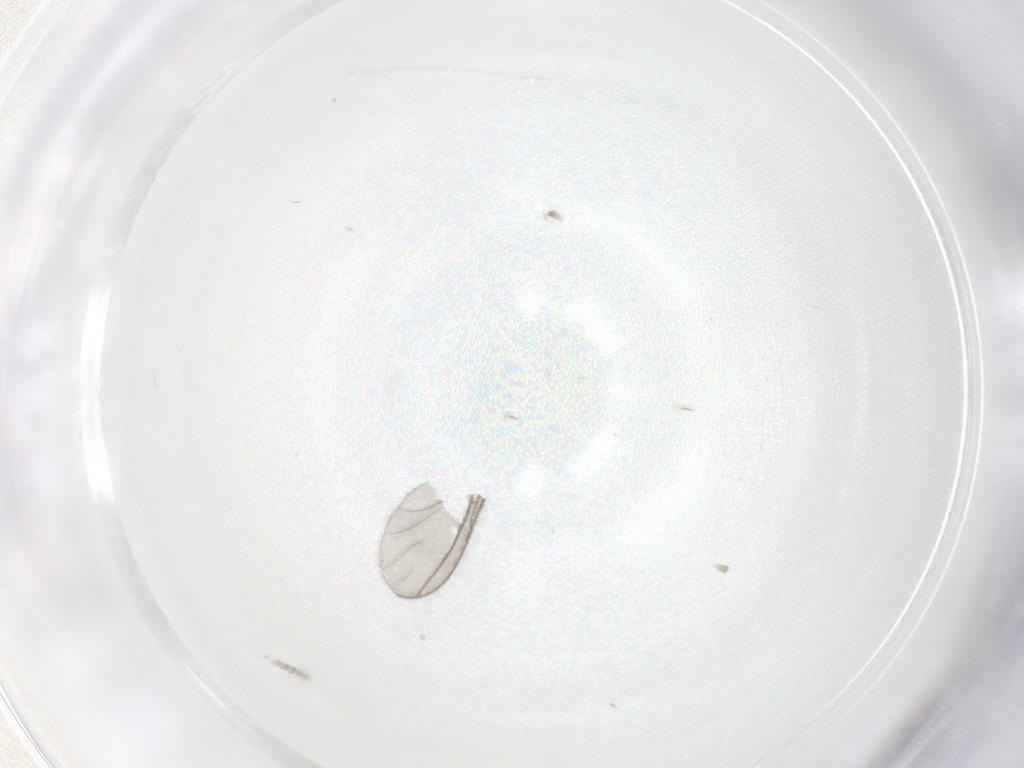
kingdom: Animalia
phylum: Arthropoda
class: Insecta
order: Diptera
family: Cecidomyiidae
